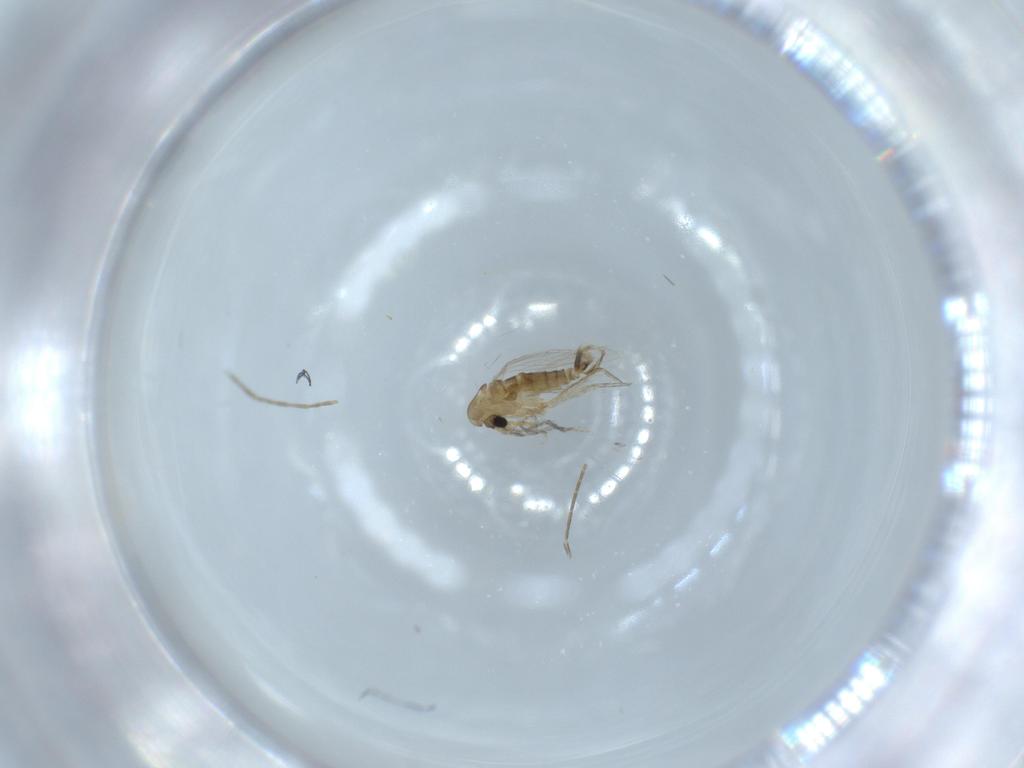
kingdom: Animalia
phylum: Arthropoda
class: Insecta
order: Diptera
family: Psychodidae
